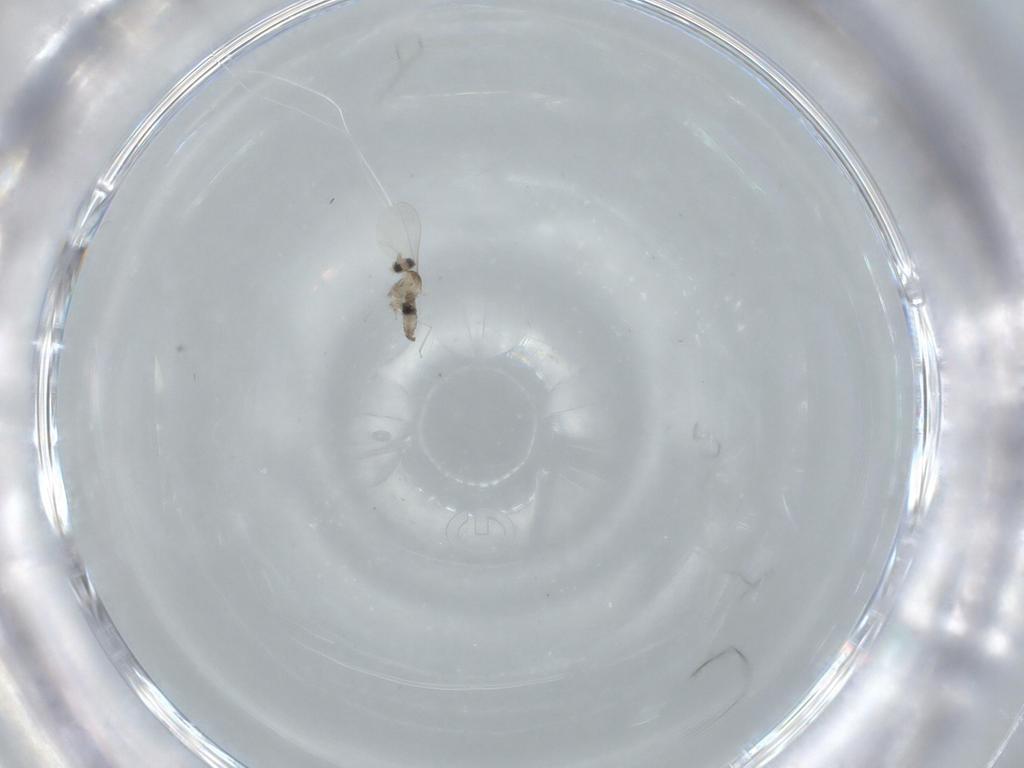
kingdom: Animalia
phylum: Arthropoda
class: Insecta
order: Diptera
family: Cecidomyiidae
